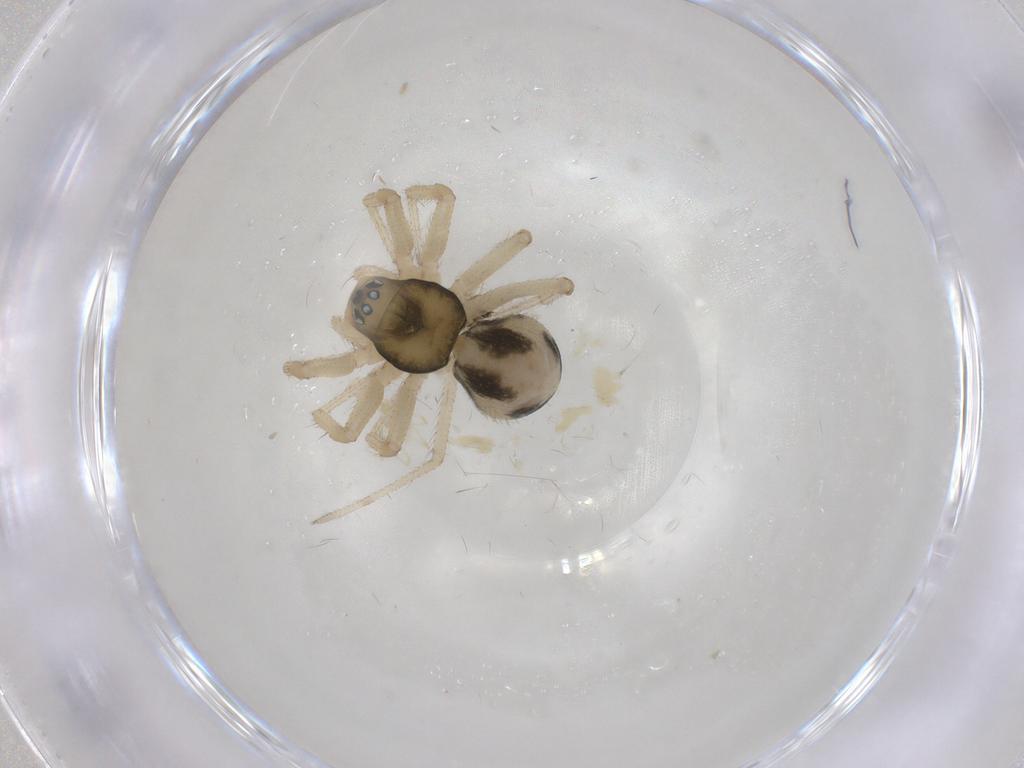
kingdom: Animalia
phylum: Arthropoda
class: Arachnida
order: Araneae
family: Linyphiidae
